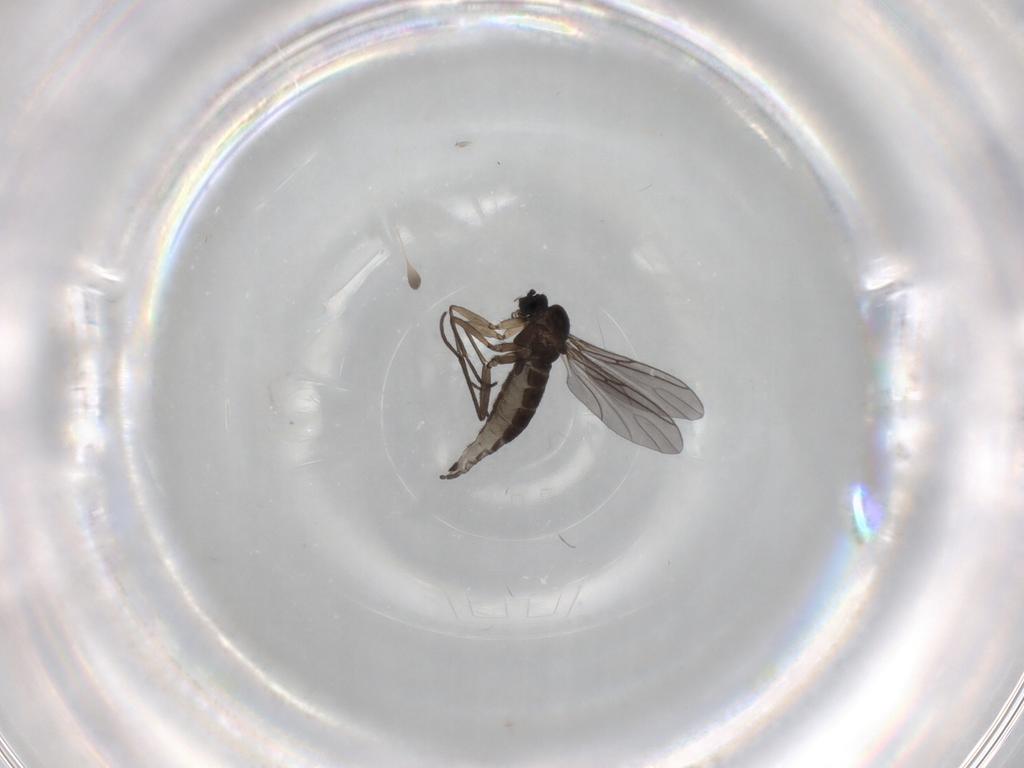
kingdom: Animalia
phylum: Arthropoda
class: Insecta
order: Diptera
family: Sciaridae
